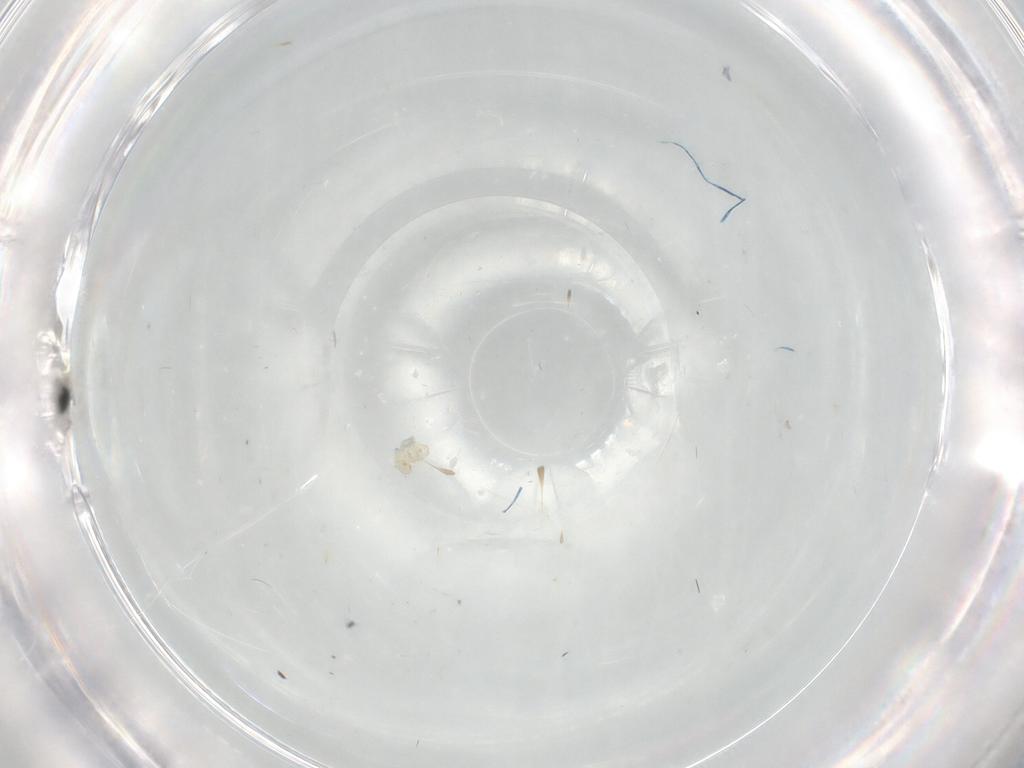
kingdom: Animalia
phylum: Arthropoda
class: Insecta
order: Diptera
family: Cecidomyiidae
